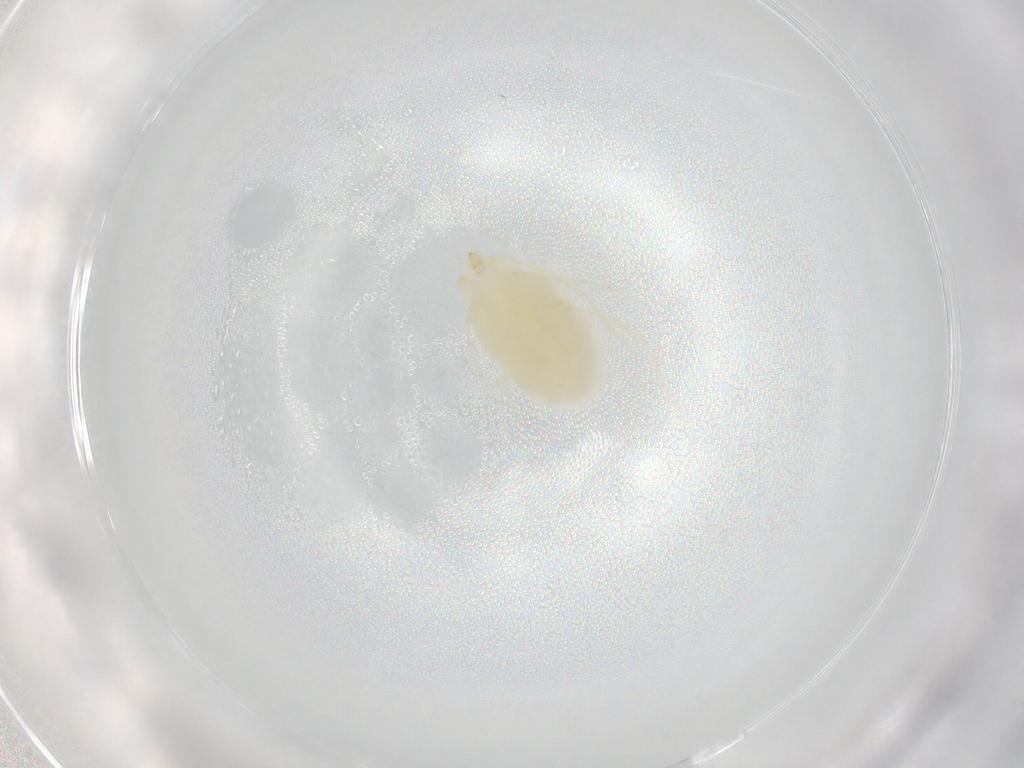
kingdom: Animalia
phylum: Arthropoda
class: Arachnida
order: Trombidiformes
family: Erythraeidae
